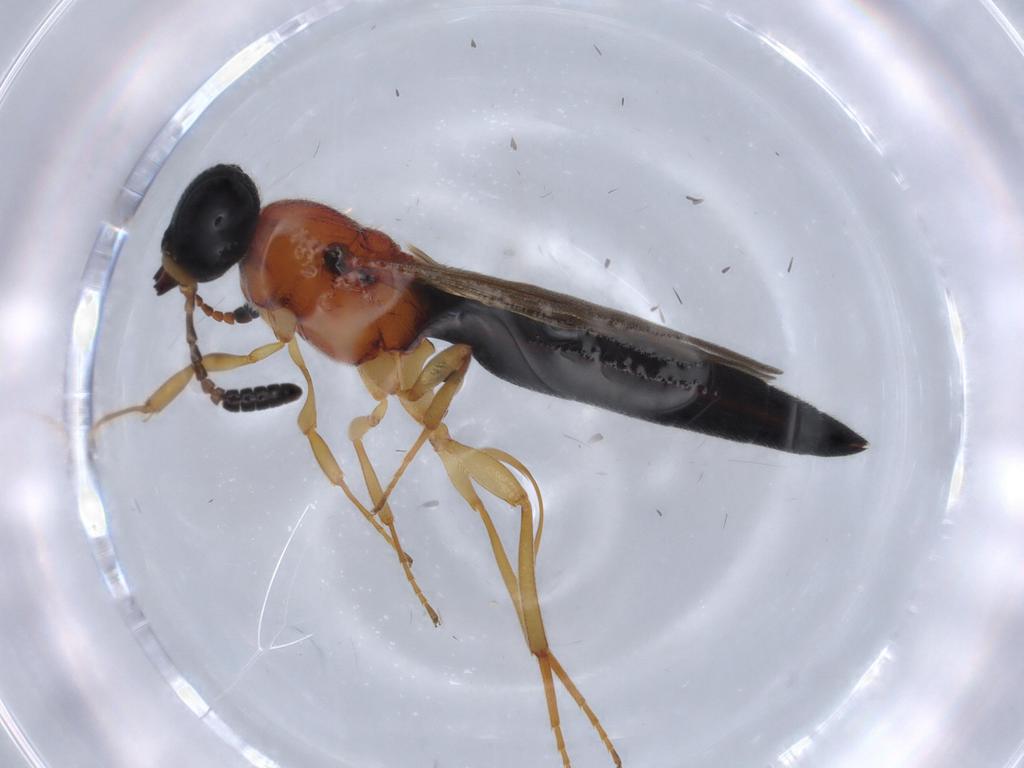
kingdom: Animalia
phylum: Arthropoda
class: Insecta
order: Hymenoptera
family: Scelionidae
